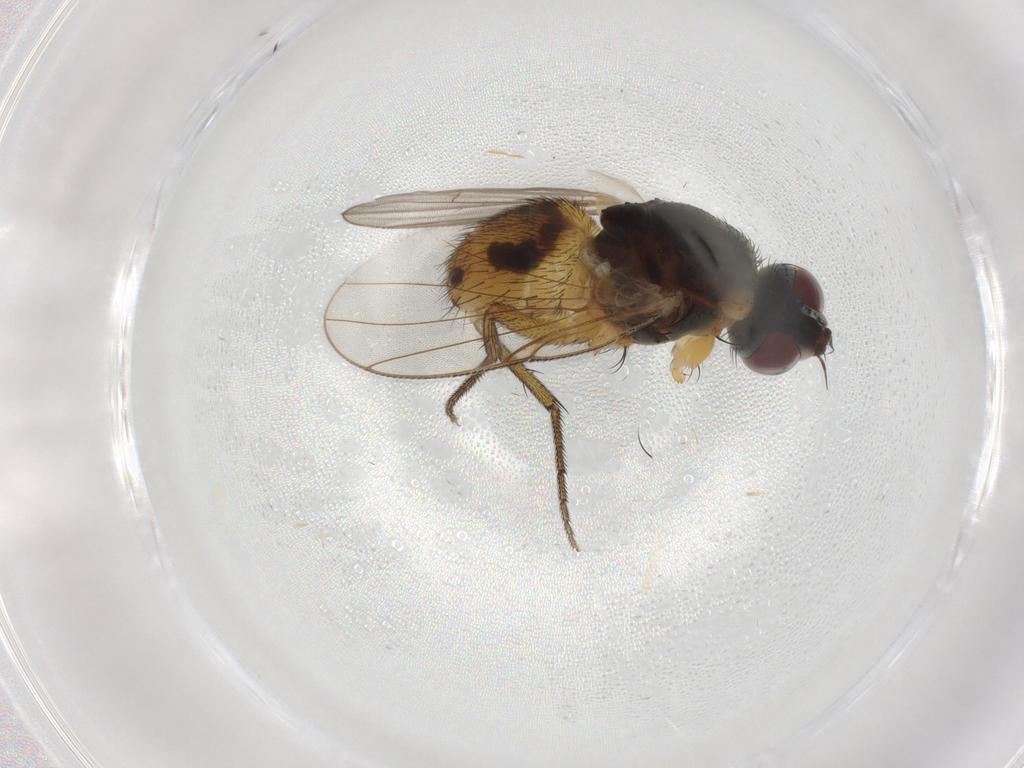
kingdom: Animalia
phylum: Arthropoda
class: Insecta
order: Diptera
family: Muscidae
